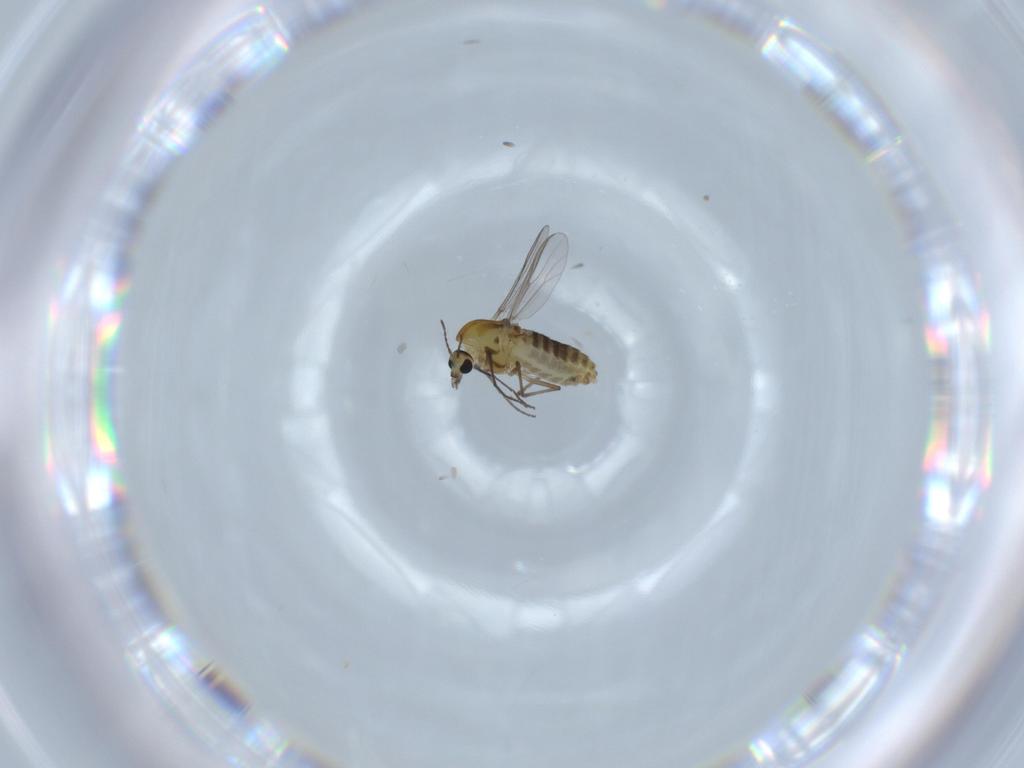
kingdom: Animalia
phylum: Arthropoda
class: Insecta
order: Diptera
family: Chironomidae
